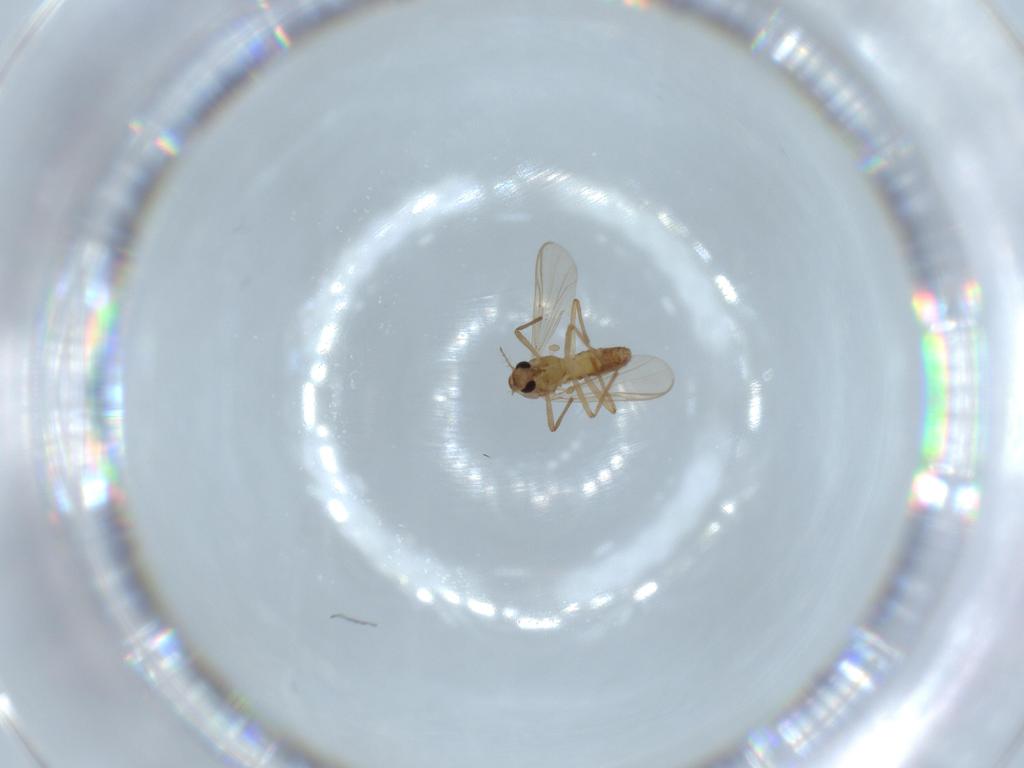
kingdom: Animalia
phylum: Arthropoda
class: Insecta
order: Diptera
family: Chironomidae
